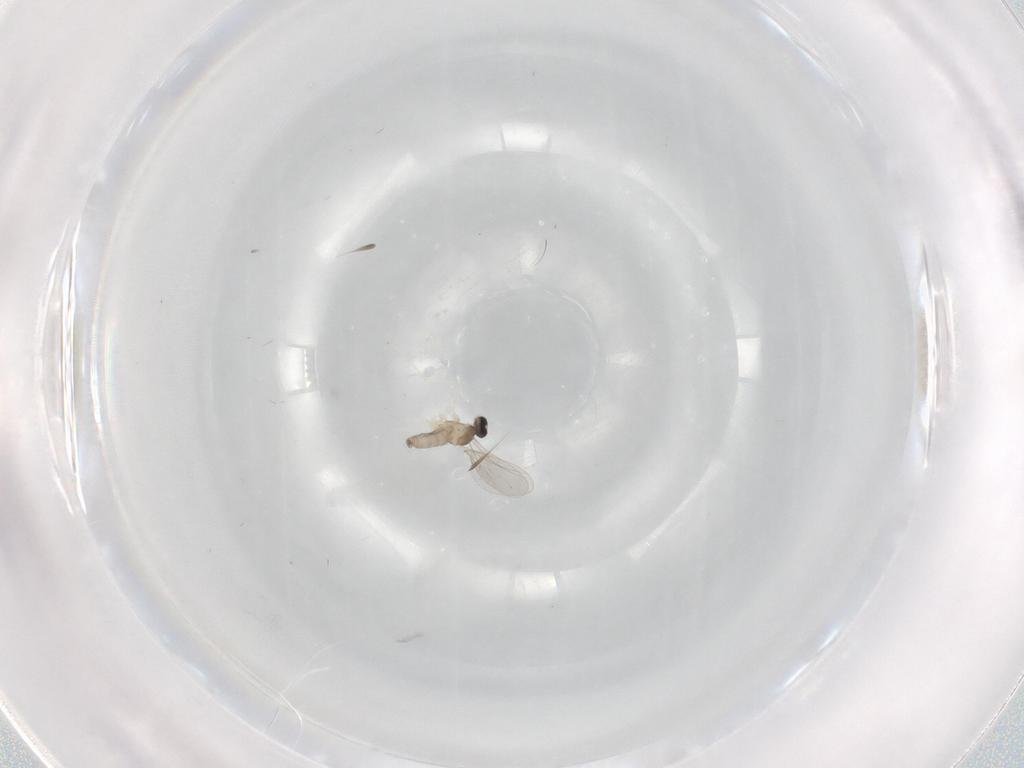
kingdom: Animalia
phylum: Arthropoda
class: Insecta
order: Diptera
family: Cecidomyiidae
